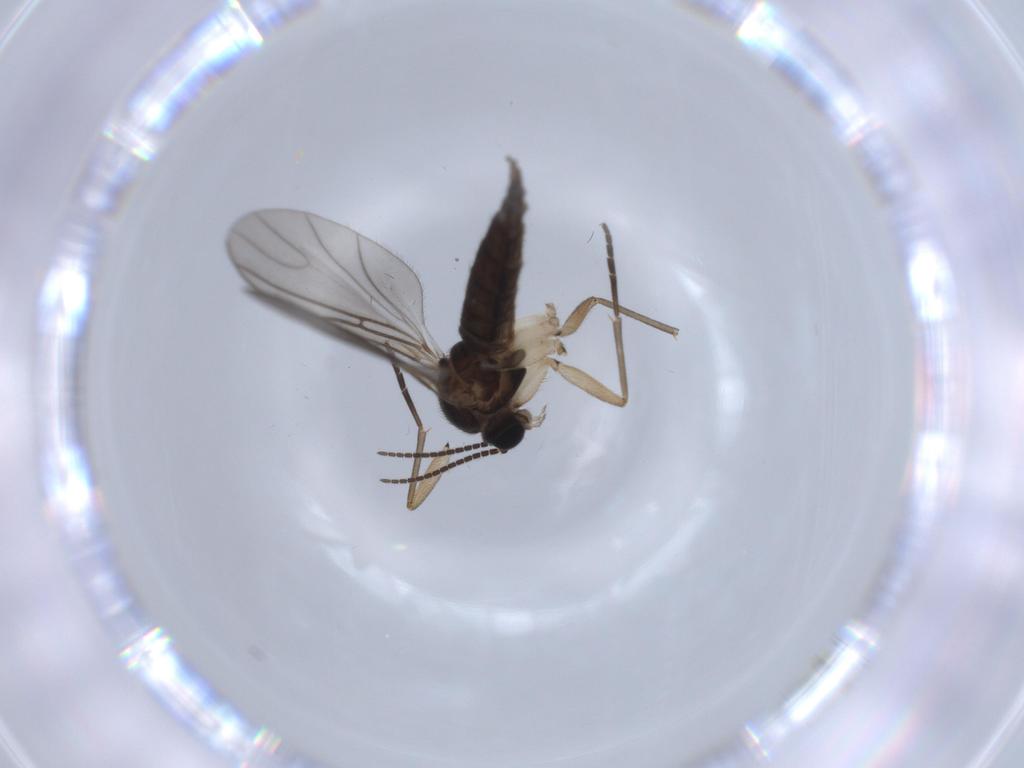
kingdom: Animalia
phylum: Arthropoda
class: Insecta
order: Diptera
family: Sciaridae
